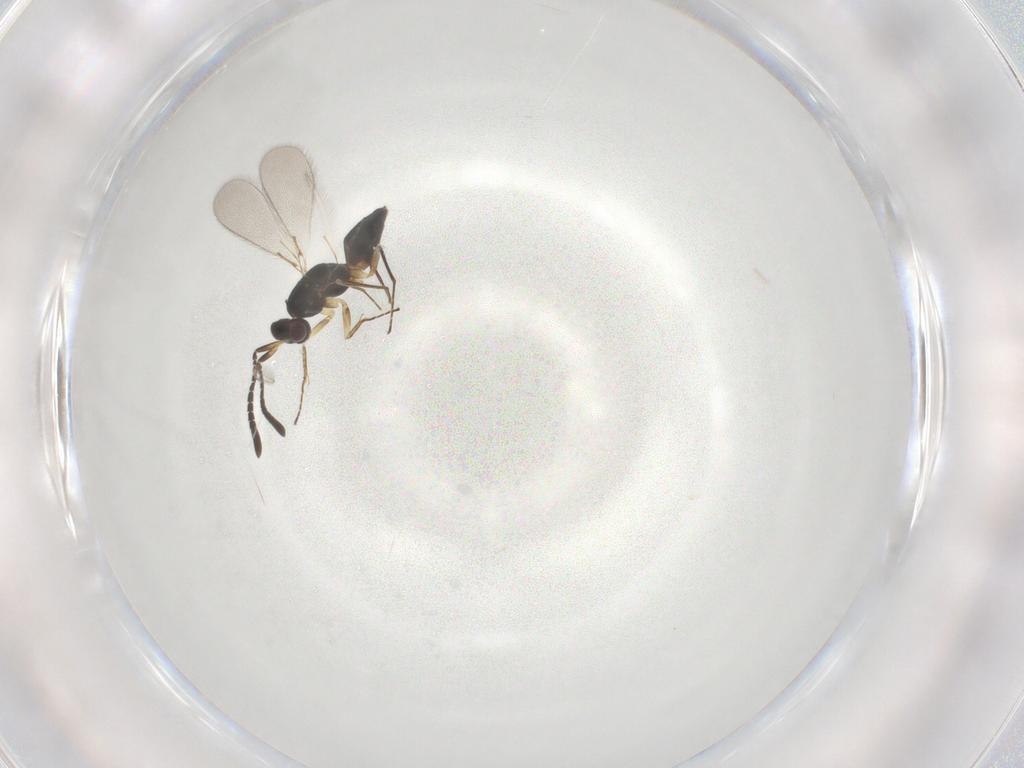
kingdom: Animalia
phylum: Arthropoda
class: Insecta
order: Hymenoptera
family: Mymaridae
